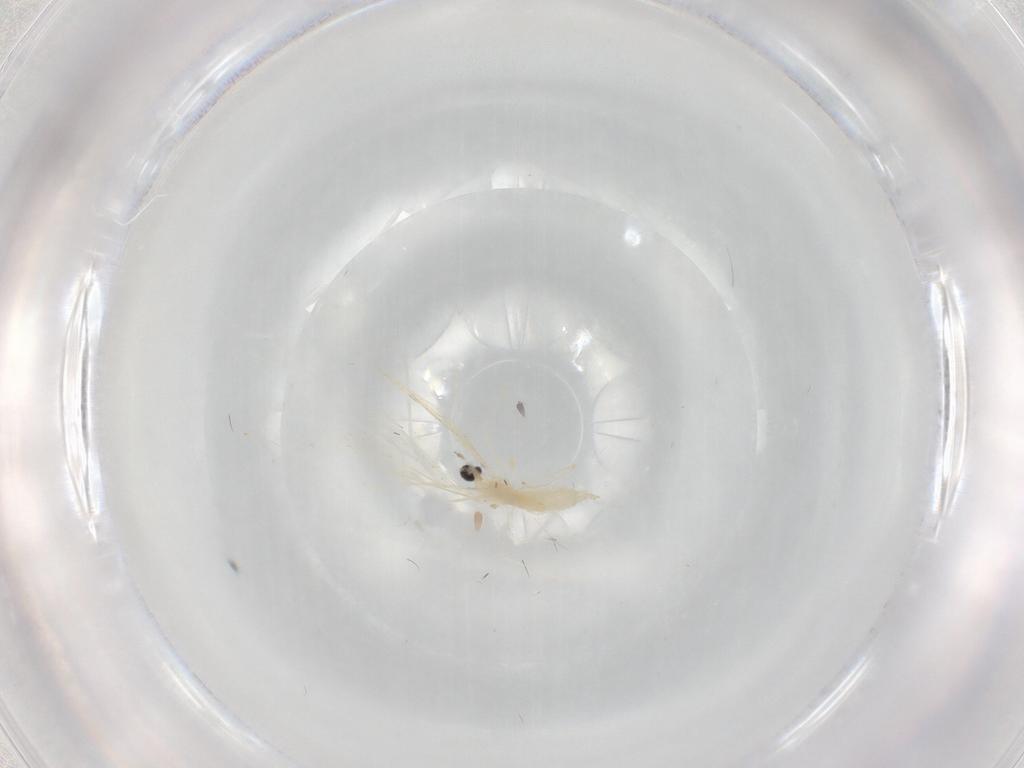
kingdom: Animalia
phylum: Arthropoda
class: Insecta
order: Diptera
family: Cecidomyiidae
